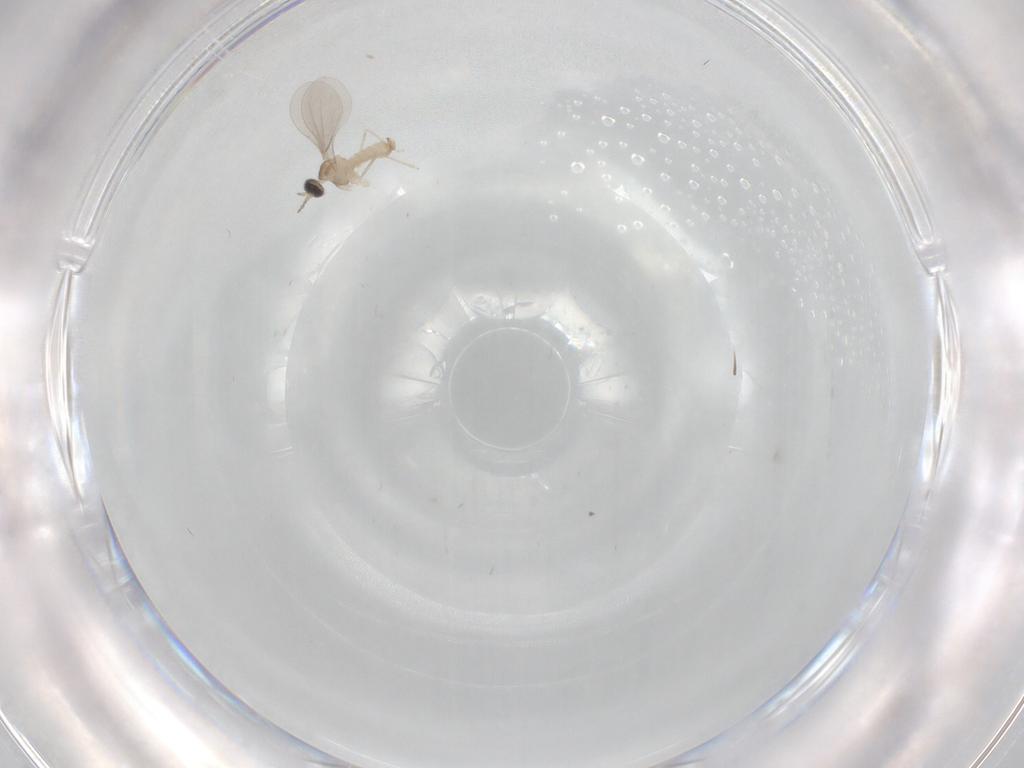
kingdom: Animalia
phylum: Arthropoda
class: Insecta
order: Diptera
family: Cecidomyiidae
